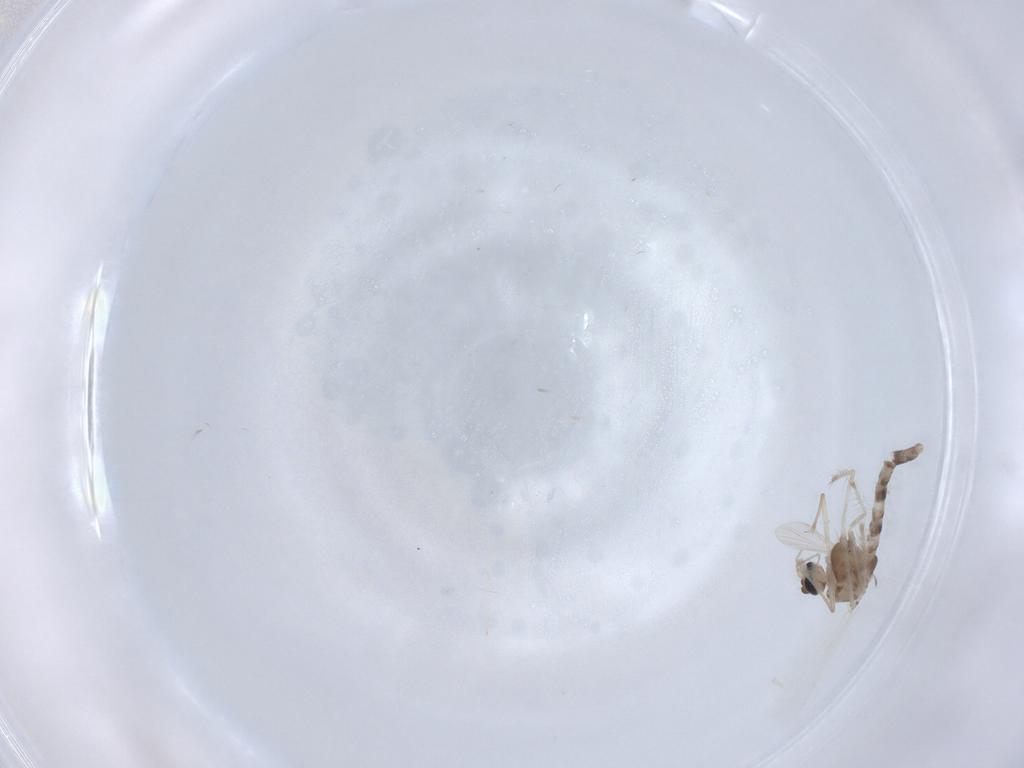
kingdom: Animalia
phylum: Arthropoda
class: Insecta
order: Diptera
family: Chironomidae
